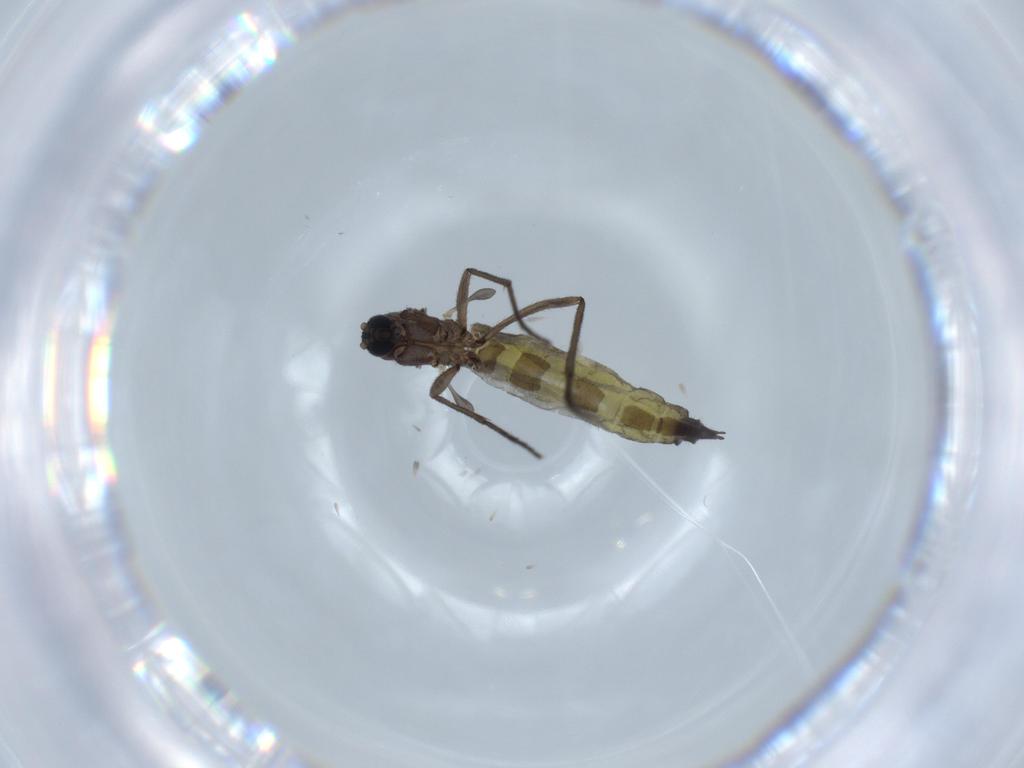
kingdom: Animalia
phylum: Arthropoda
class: Insecta
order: Diptera
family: Sciaridae
